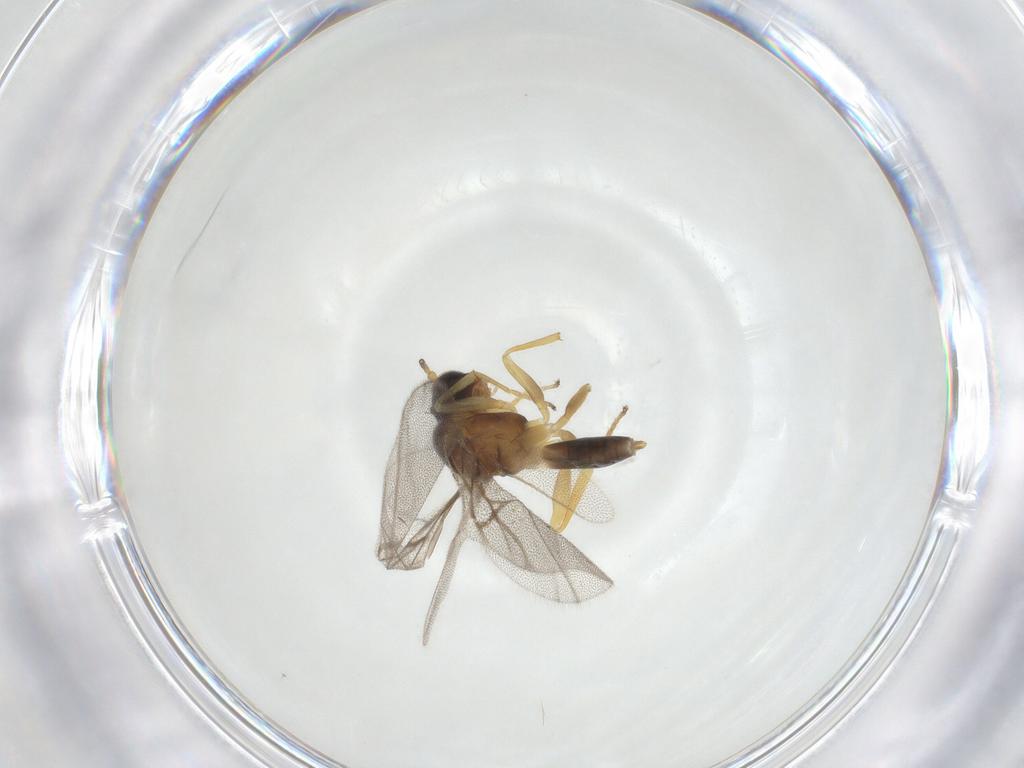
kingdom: Animalia
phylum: Arthropoda
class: Insecta
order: Hymenoptera
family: Cynipidae
